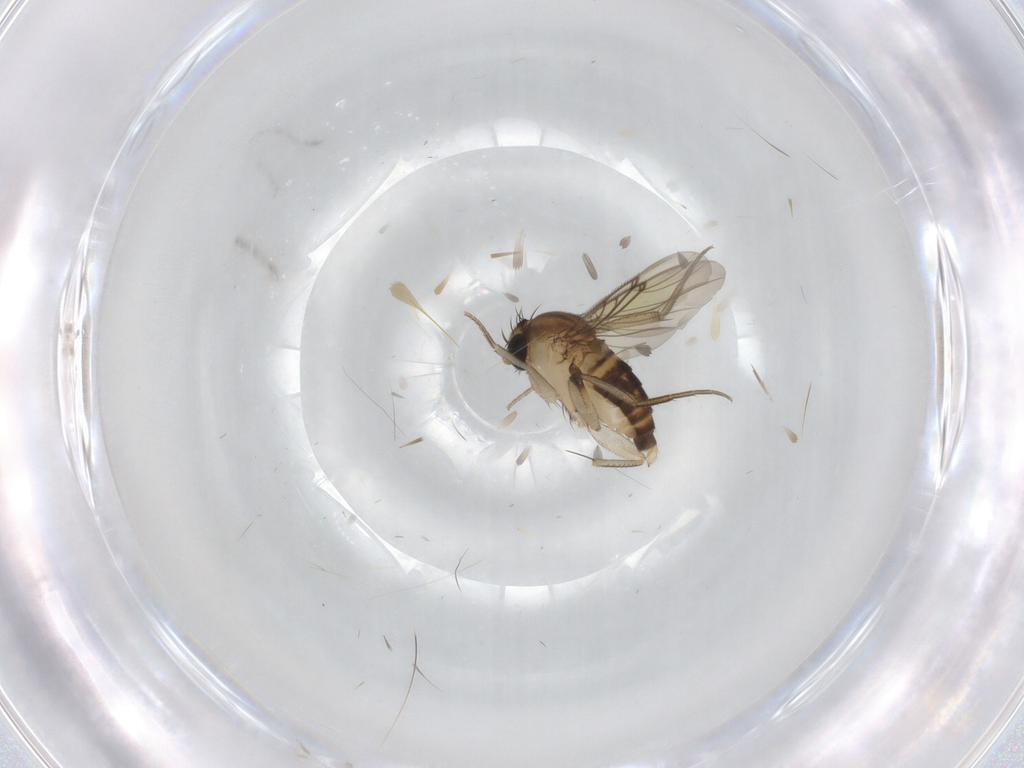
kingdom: Animalia
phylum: Arthropoda
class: Insecta
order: Diptera
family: Phoridae
